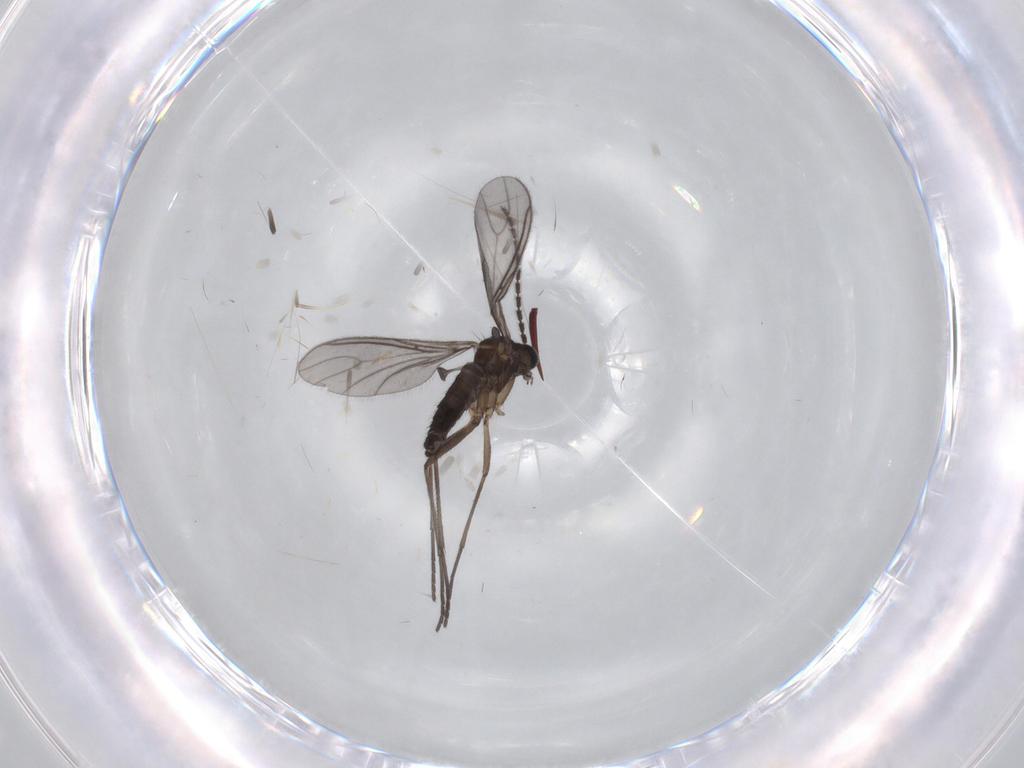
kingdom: Animalia
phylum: Arthropoda
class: Insecta
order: Diptera
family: Sciaridae
